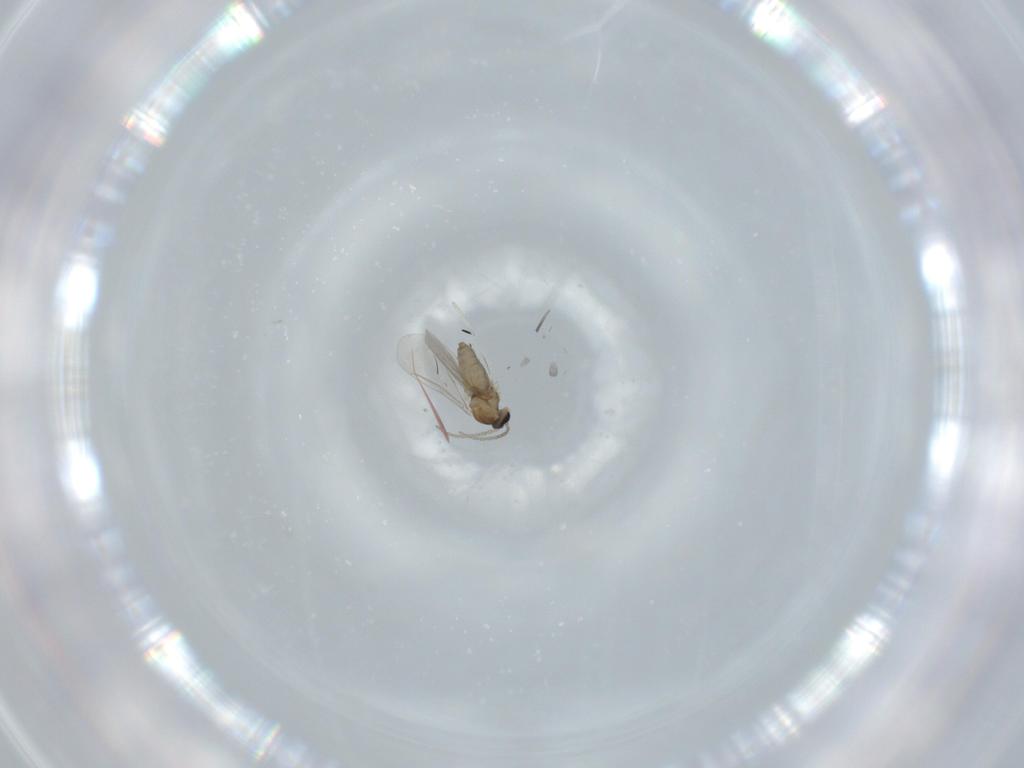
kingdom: Animalia
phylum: Arthropoda
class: Insecta
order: Diptera
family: Cecidomyiidae
